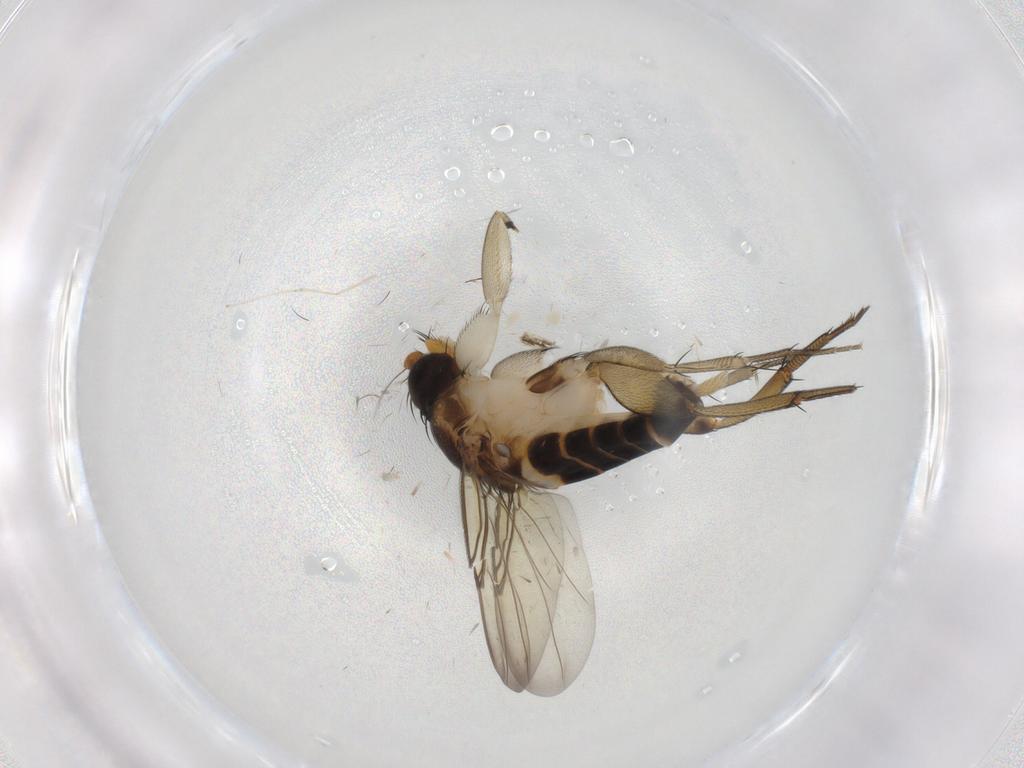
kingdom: Animalia
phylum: Arthropoda
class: Insecta
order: Diptera
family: Phoridae
